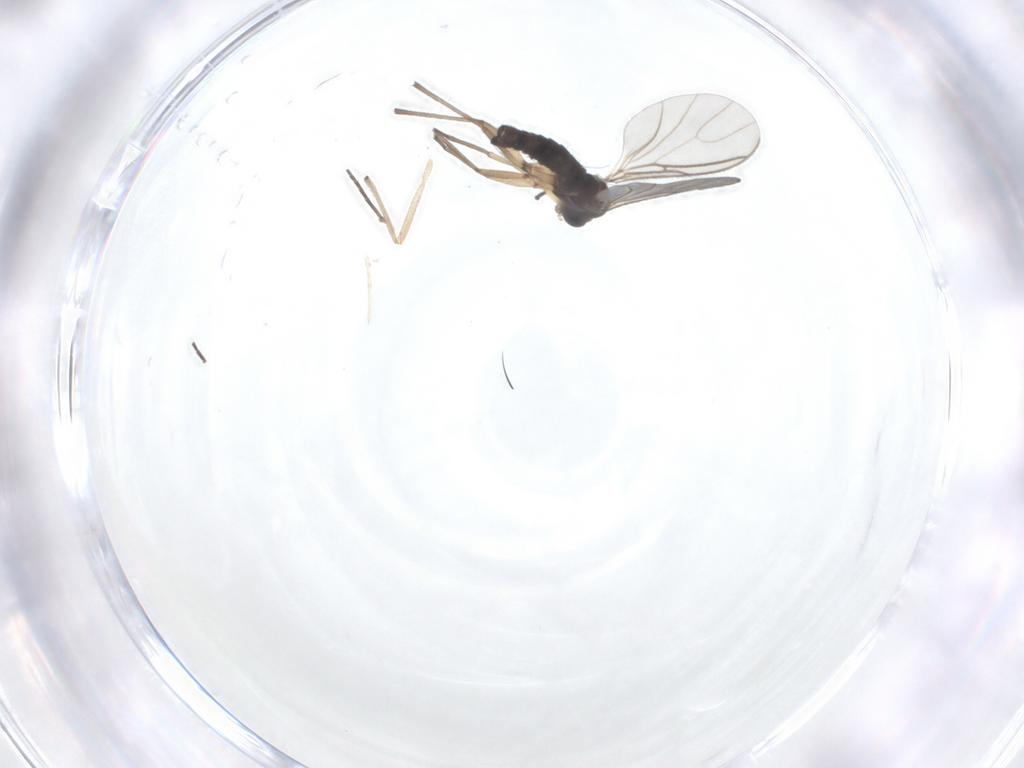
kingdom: Animalia
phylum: Arthropoda
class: Insecta
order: Diptera
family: Sciaridae
